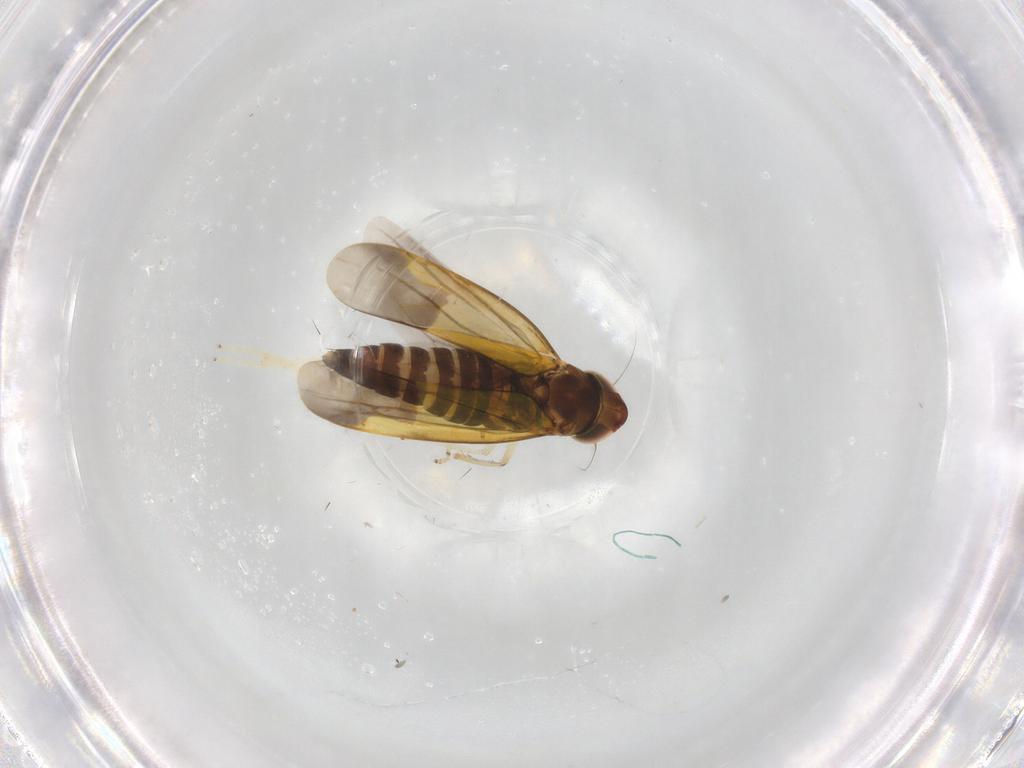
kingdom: Animalia
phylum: Arthropoda
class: Insecta
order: Hemiptera
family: Cicadellidae
